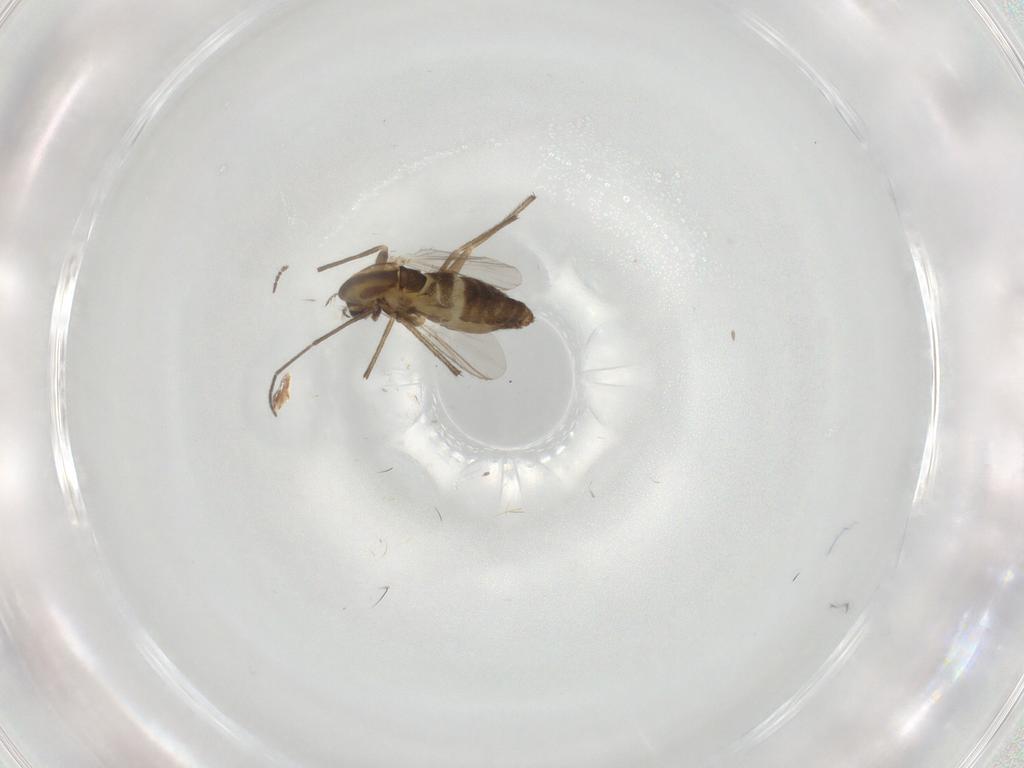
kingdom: Animalia
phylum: Arthropoda
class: Insecta
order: Diptera
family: Chironomidae
